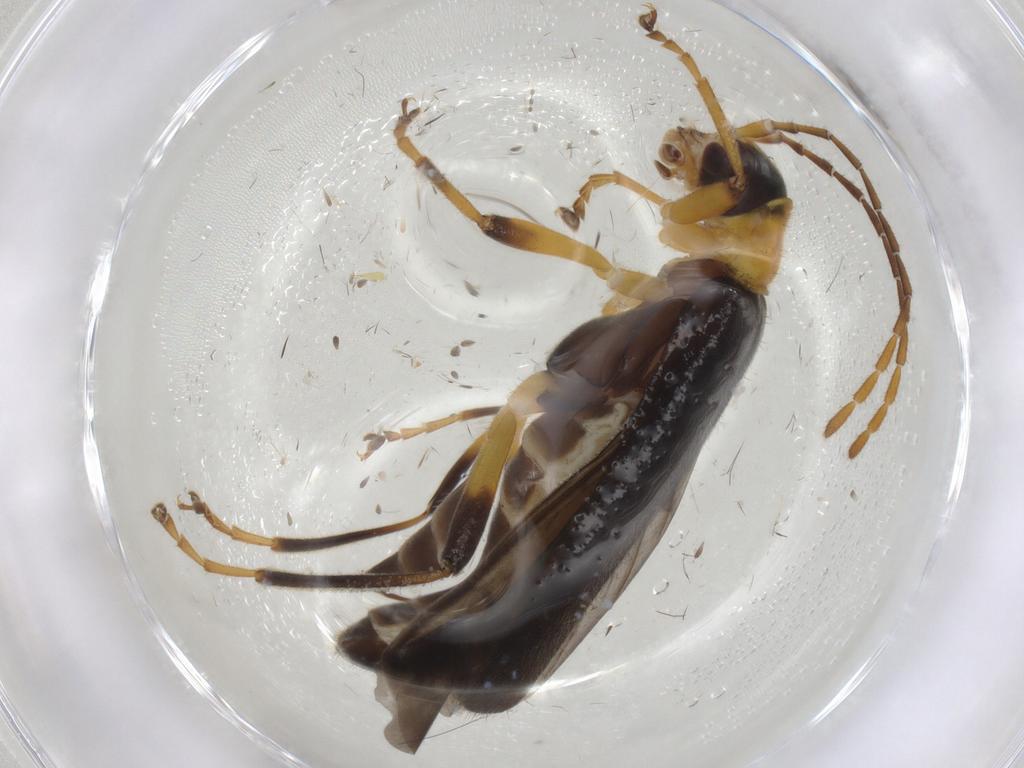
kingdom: Animalia
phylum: Arthropoda
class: Insecta
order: Coleoptera
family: Cantharidae
